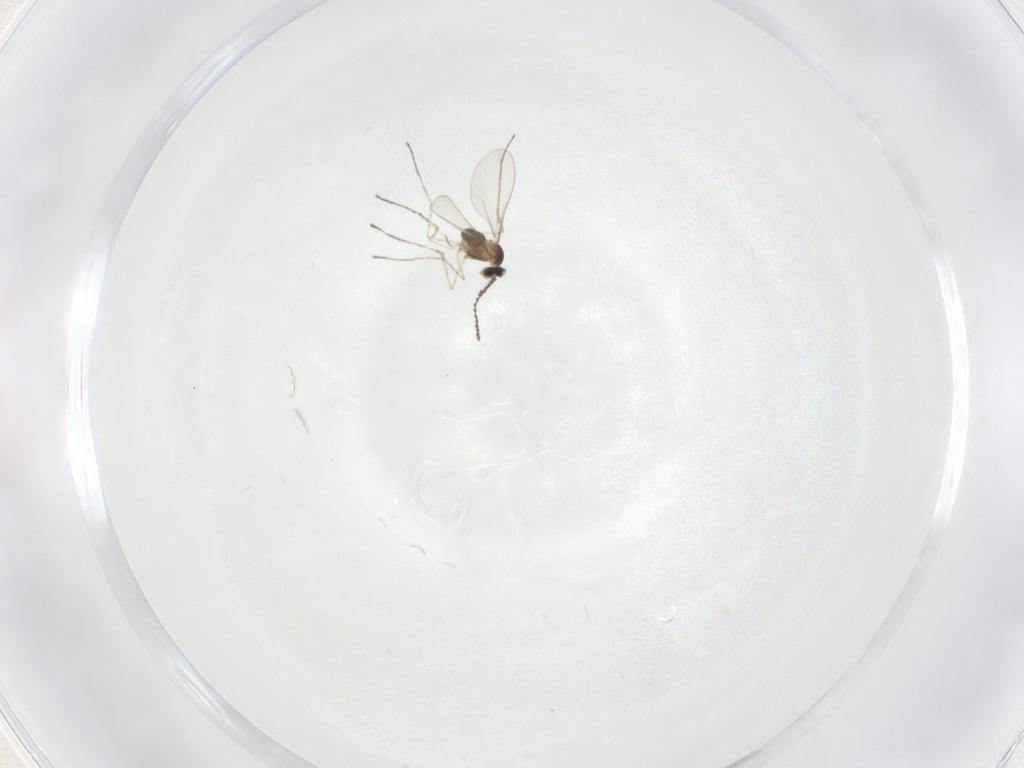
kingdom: Animalia
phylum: Arthropoda
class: Insecta
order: Diptera
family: Cecidomyiidae
